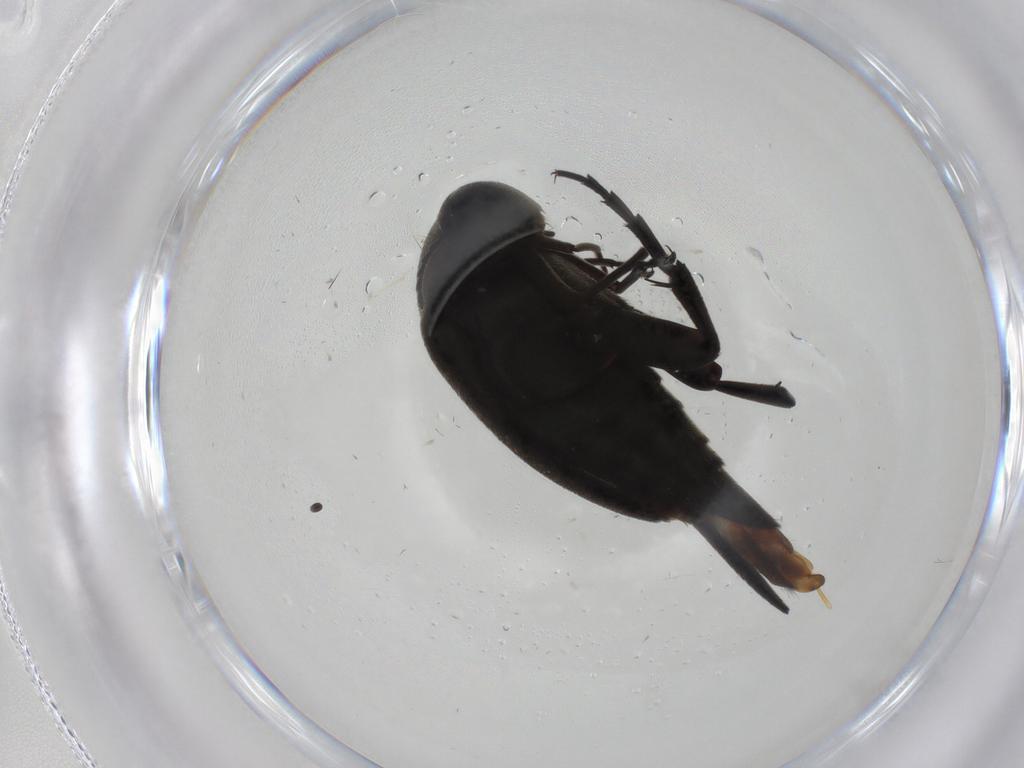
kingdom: Animalia
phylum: Arthropoda
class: Insecta
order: Coleoptera
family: Mordellidae
